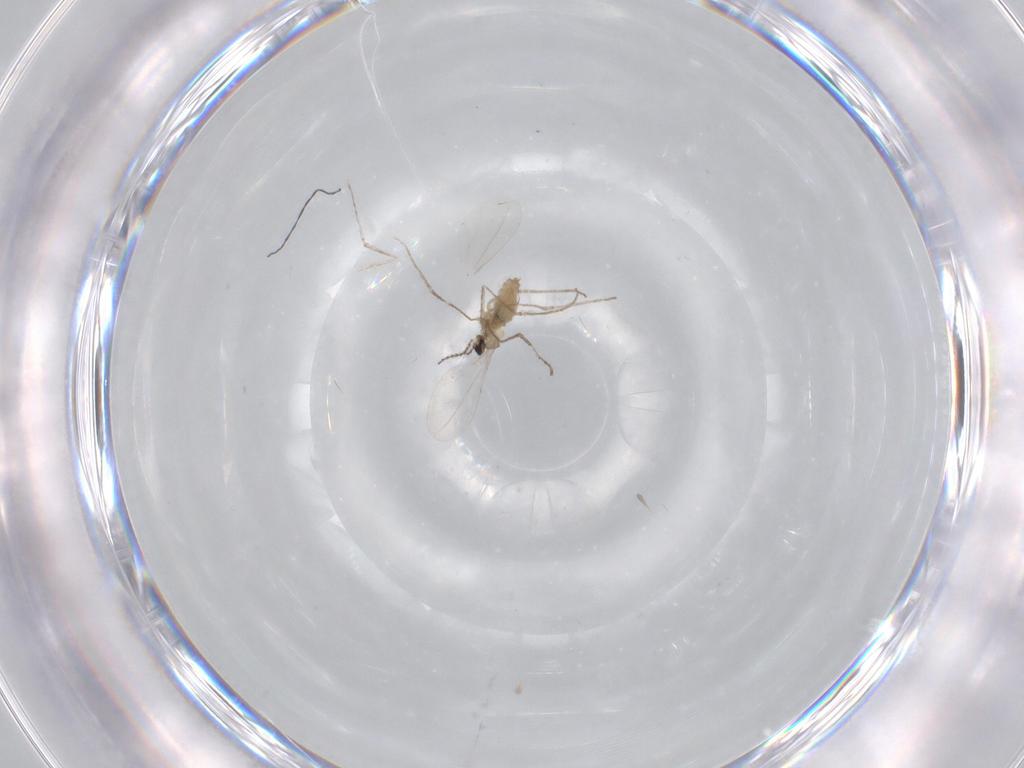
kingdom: Animalia
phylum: Arthropoda
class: Insecta
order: Diptera
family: Cecidomyiidae
